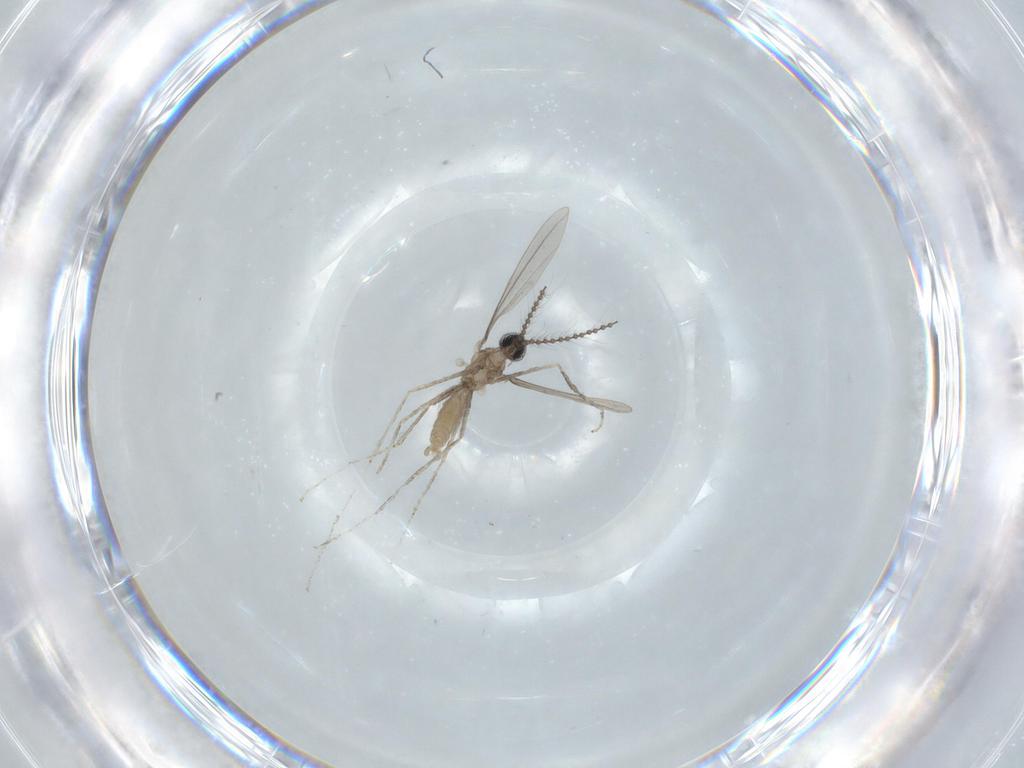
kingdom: Animalia
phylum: Arthropoda
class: Insecta
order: Diptera
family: Cecidomyiidae
